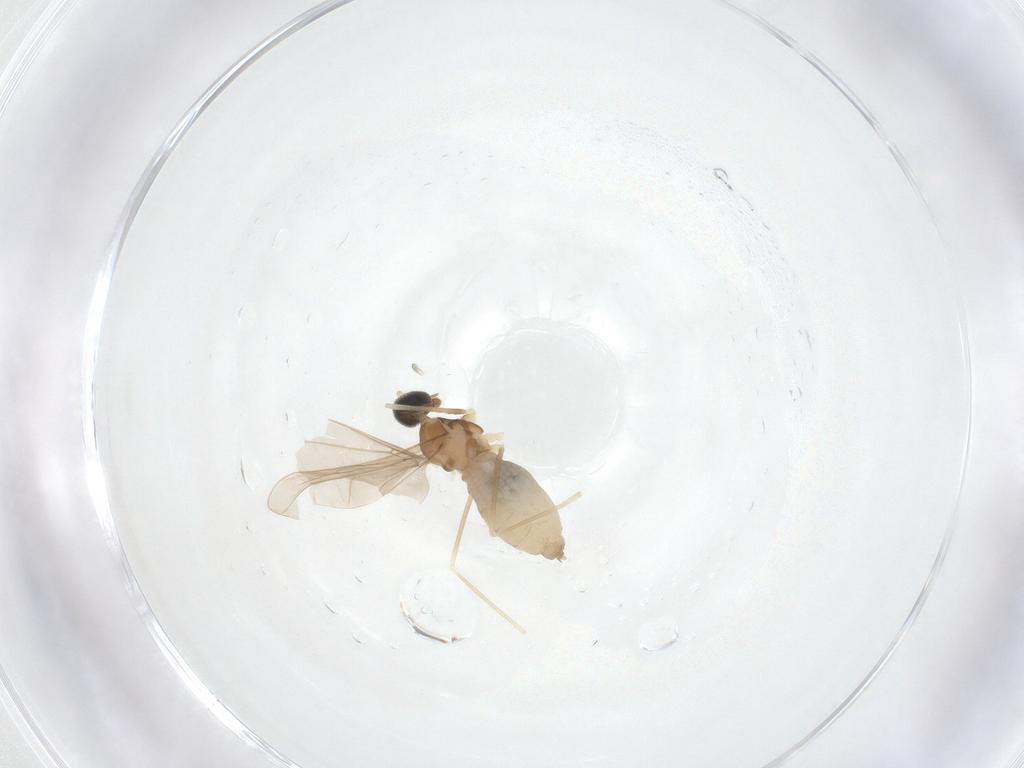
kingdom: Animalia
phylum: Arthropoda
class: Insecta
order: Diptera
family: Cecidomyiidae
